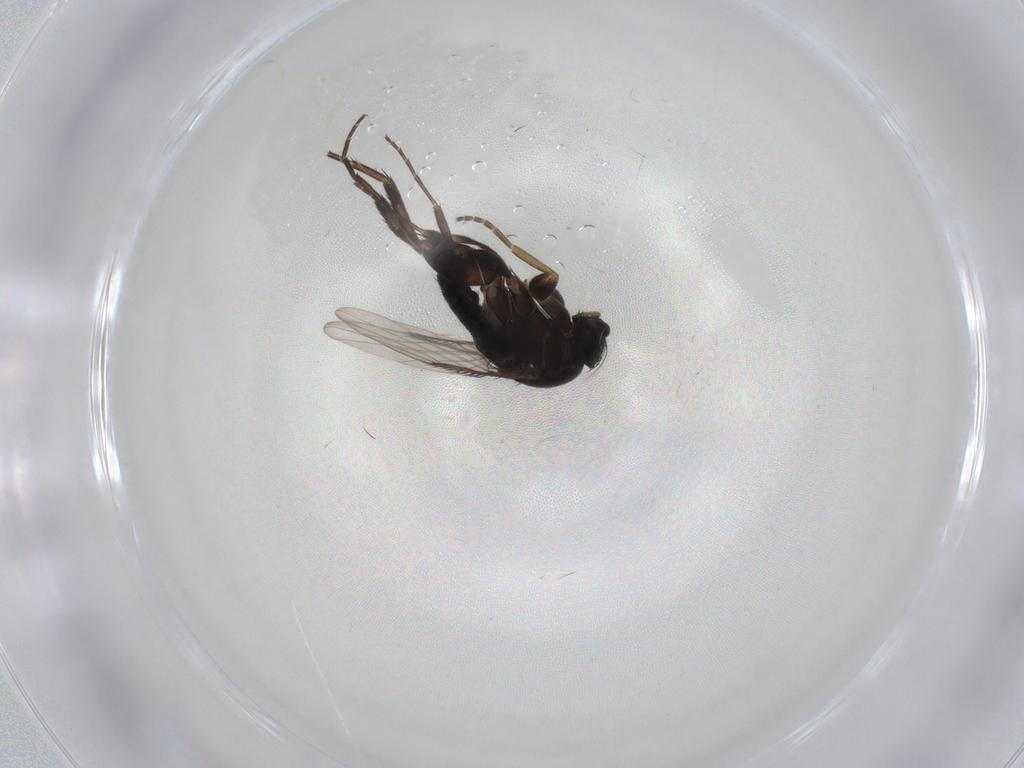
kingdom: Animalia
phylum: Arthropoda
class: Insecta
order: Diptera
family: Phoridae
